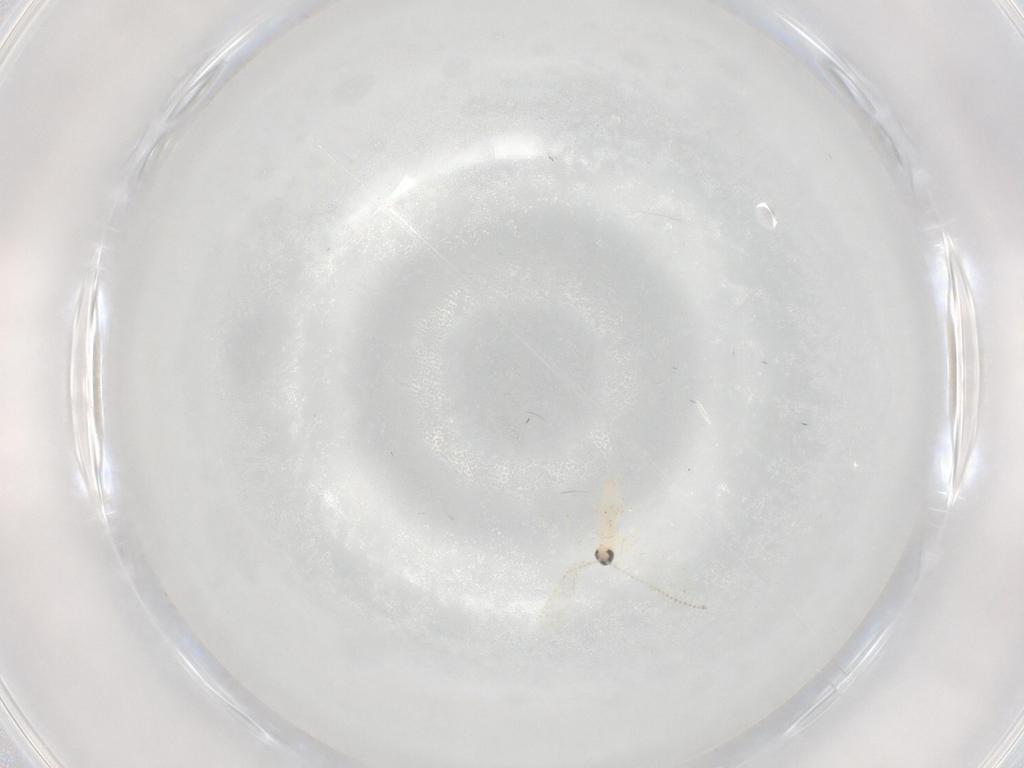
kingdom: Animalia
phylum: Arthropoda
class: Insecta
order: Diptera
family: Cecidomyiidae
